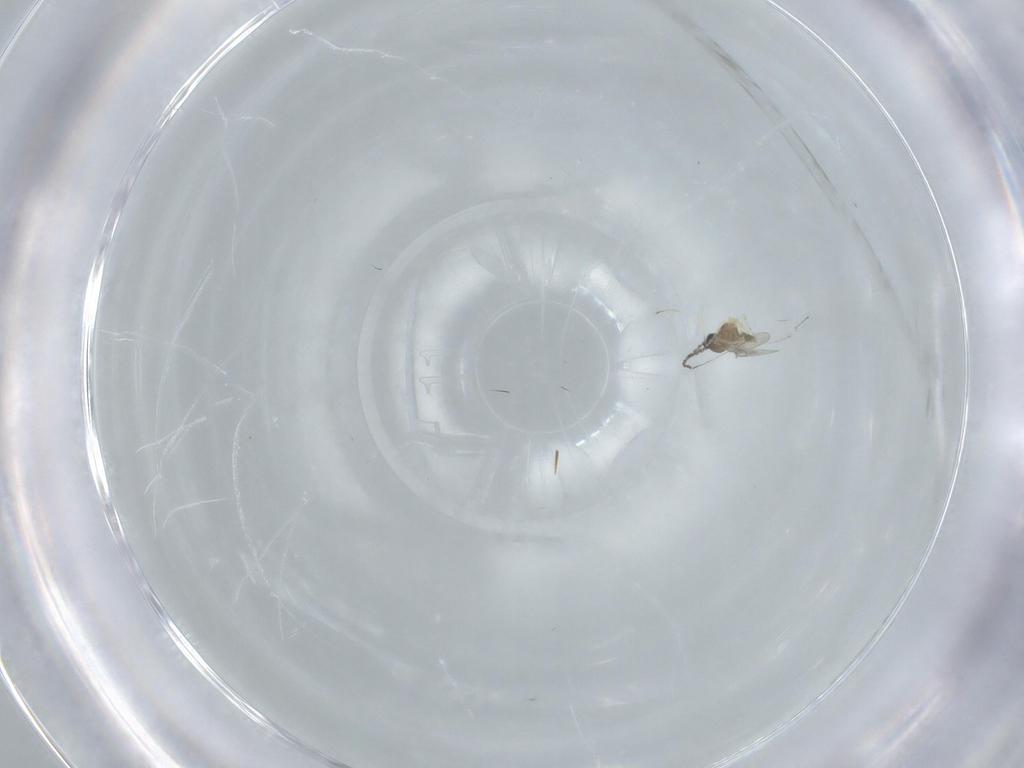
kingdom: Animalia
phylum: Arthropoda
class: Insecta
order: Diptera
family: Cecidomyiidae
